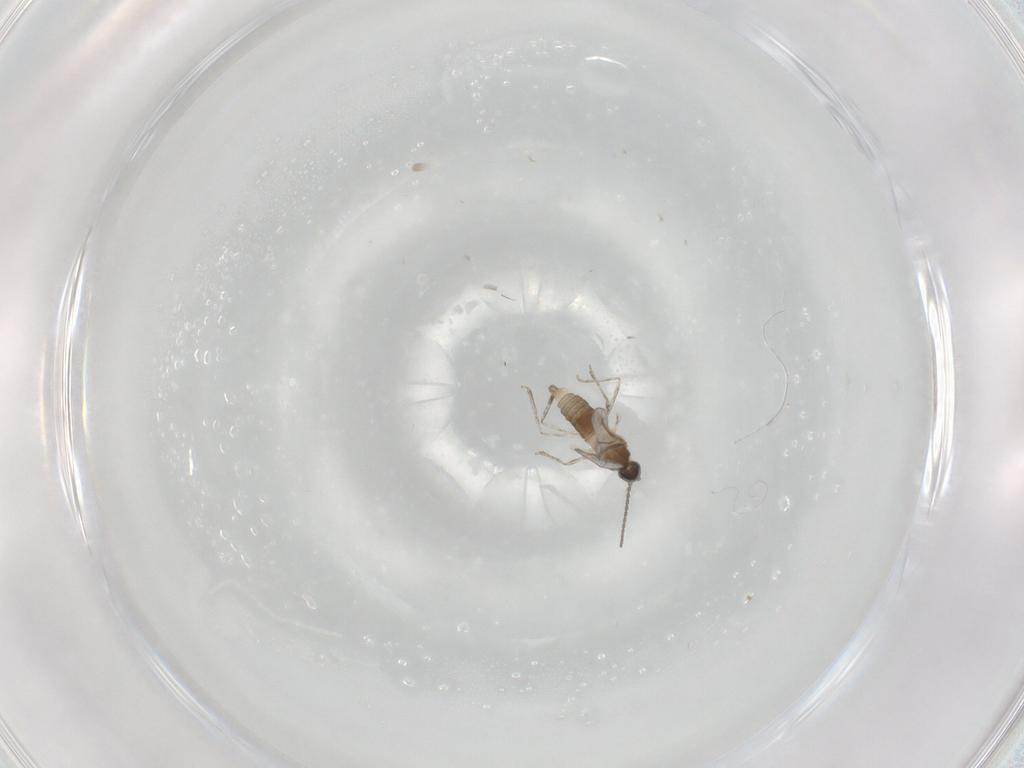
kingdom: Animalia
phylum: Arthropoda
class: Insecta
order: Diptera
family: Cecidomyiidae
